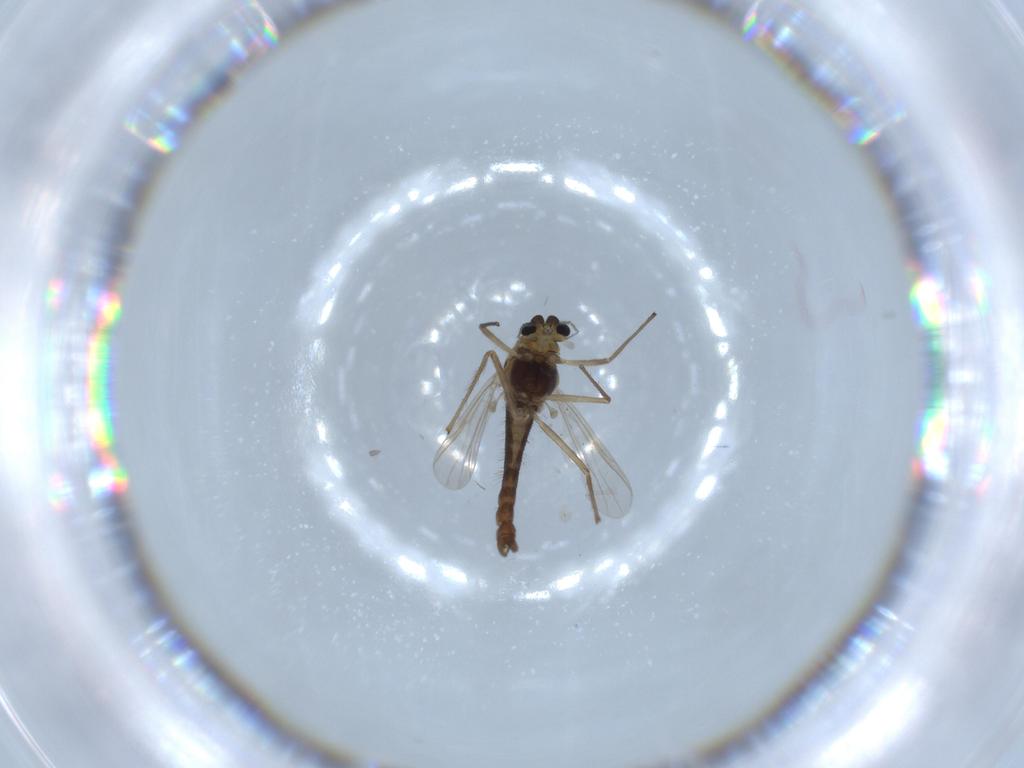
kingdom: Animalia
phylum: Arthropoda
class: Insecta
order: Diptera
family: Chironomidae
